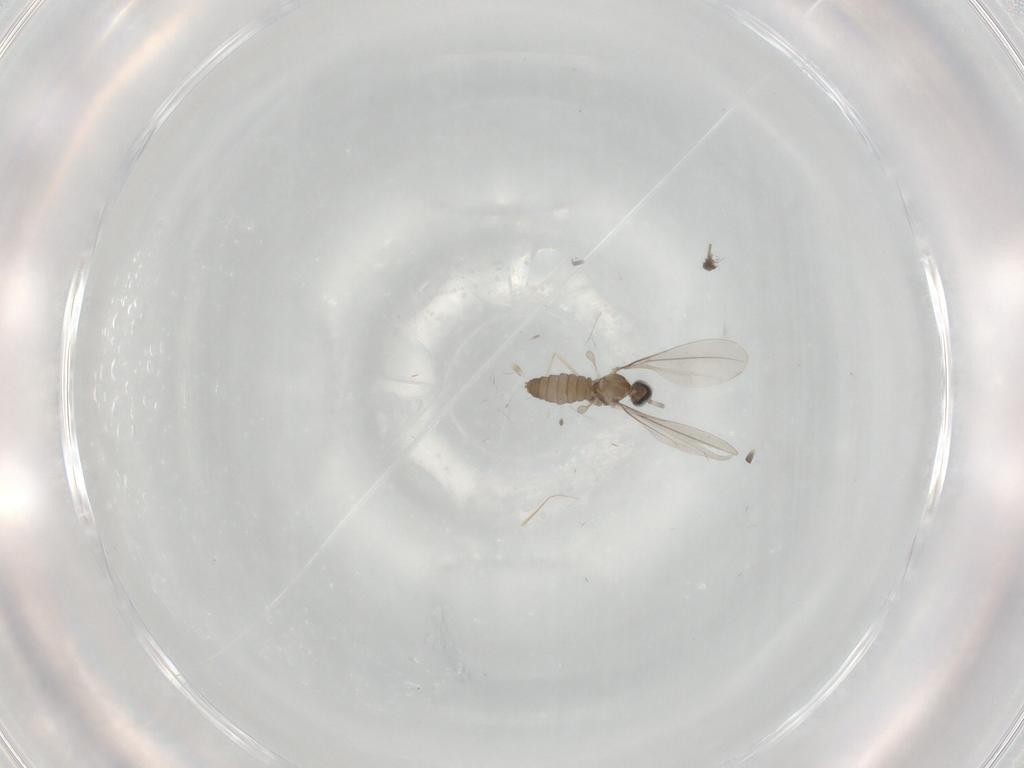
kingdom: Animalia
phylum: Arthropoda
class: Insecta
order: Diptera
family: Cecidomyiidae
